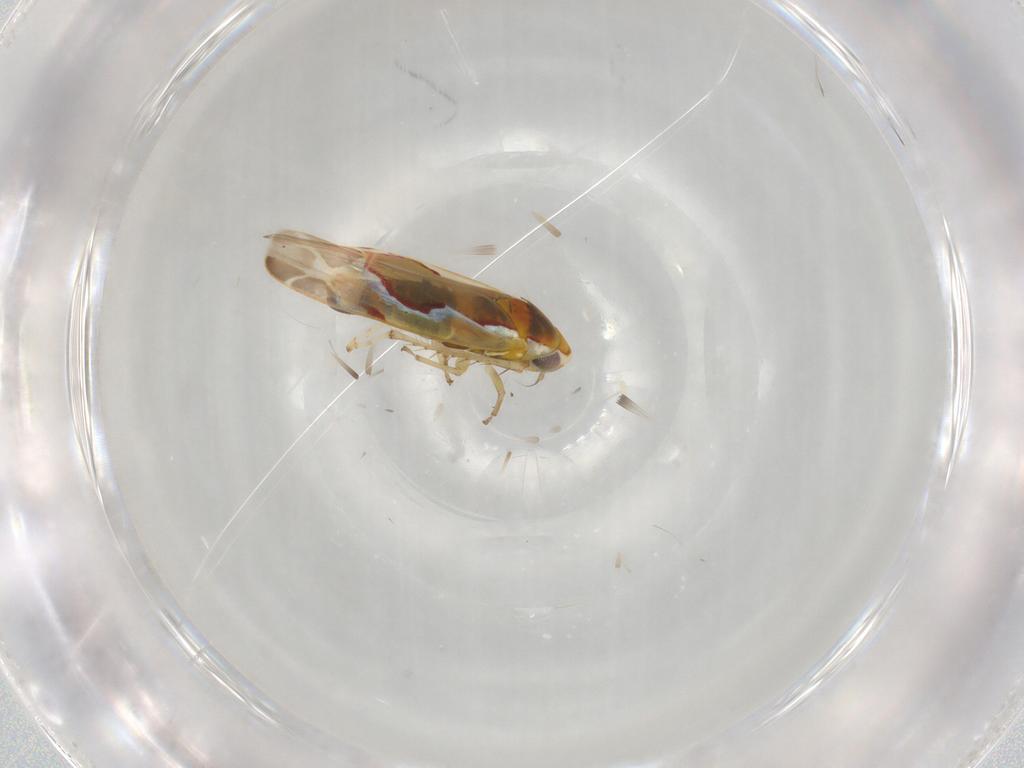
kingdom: Animalia
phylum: Arthropoda
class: Insecta
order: Hemiptera
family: Cicadellidae
